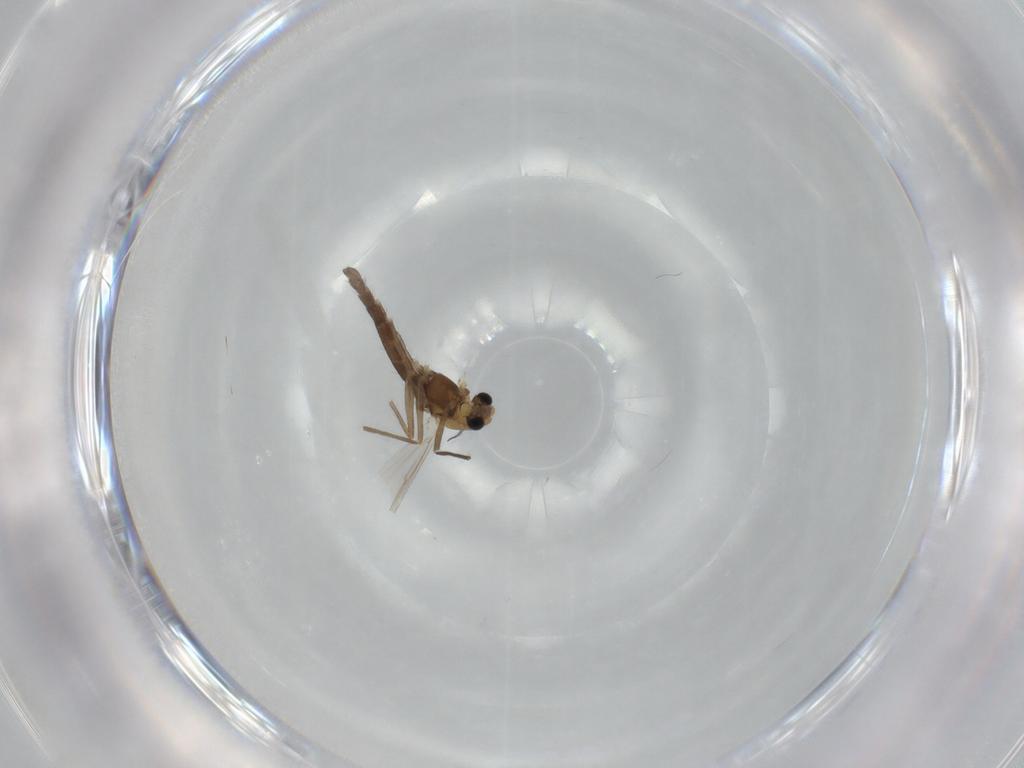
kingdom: Animalia
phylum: Arthropoda
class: Insecta
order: Diptera
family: Chironomidae
